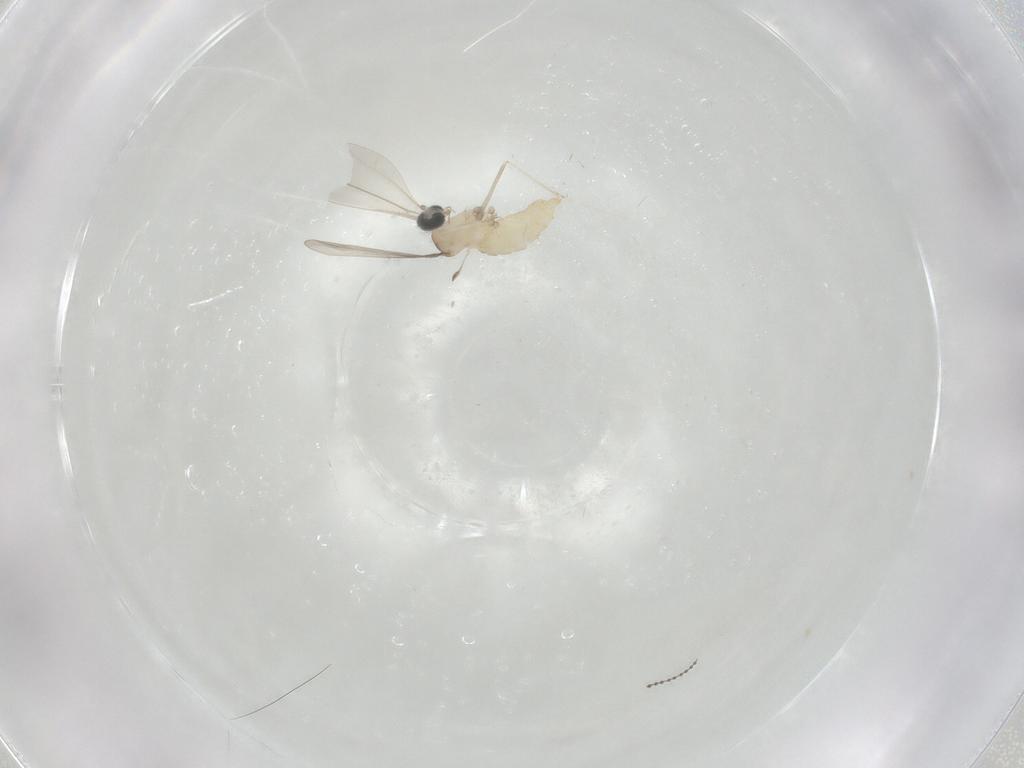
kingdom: Animalia
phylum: Arthropoda
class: Insecta
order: Diptera
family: Cecidomyiidae
